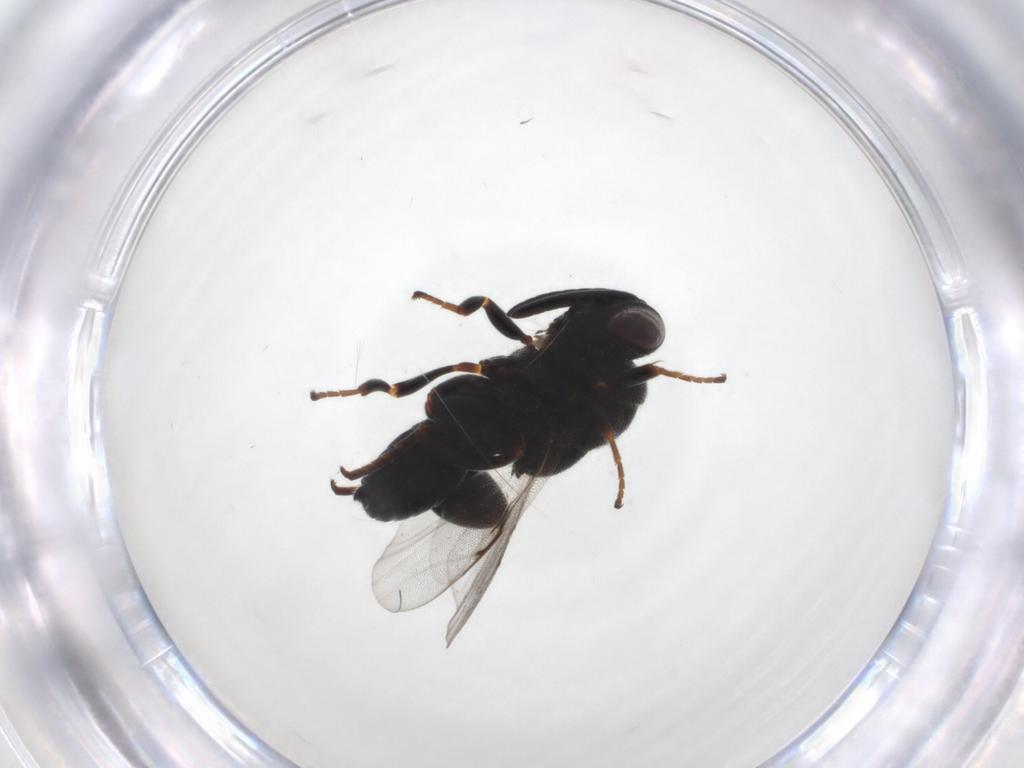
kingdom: Animalia
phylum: Arthropoda
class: Insecta
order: Hymenoptera
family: Chalcididae
